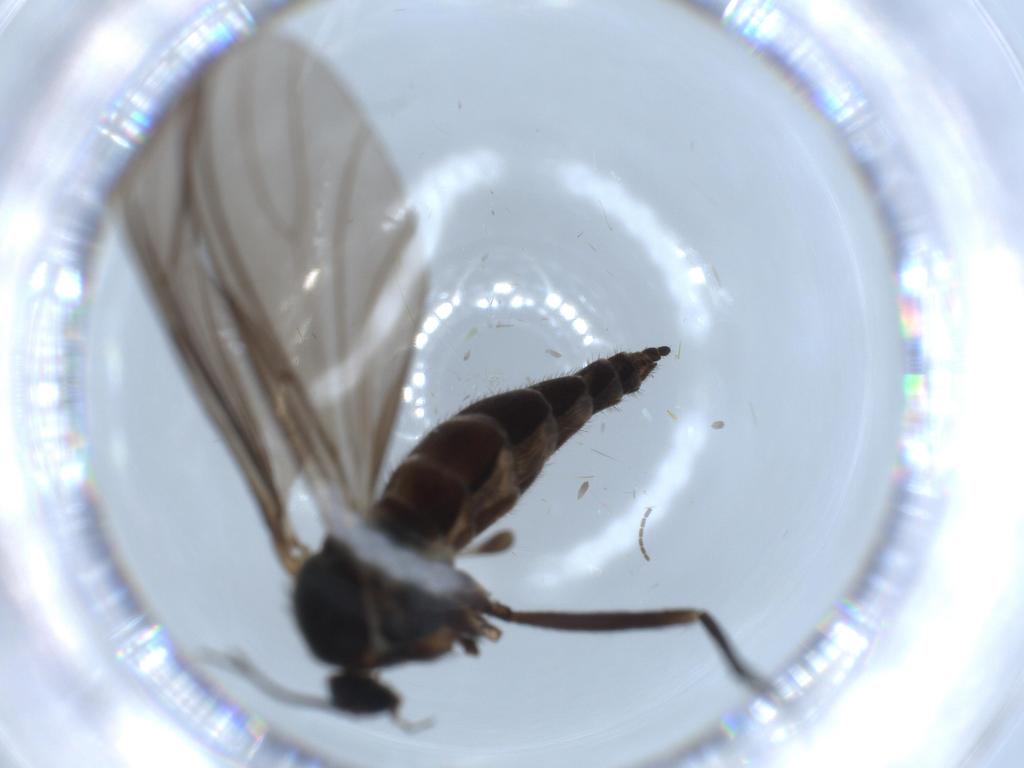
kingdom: Animalia
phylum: Arthropoda
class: Insecta
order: Diptera
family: Sciaridae
